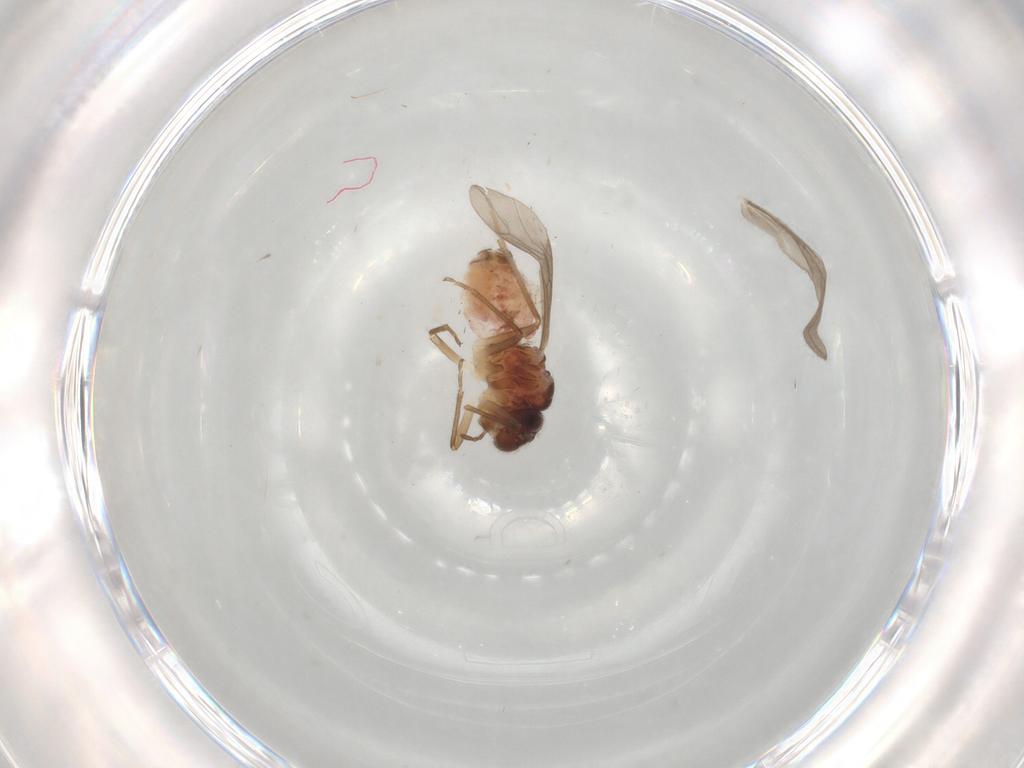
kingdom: Animalia
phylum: Arthropoda
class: Insecta
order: Psocodea
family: Caeciliusidae
